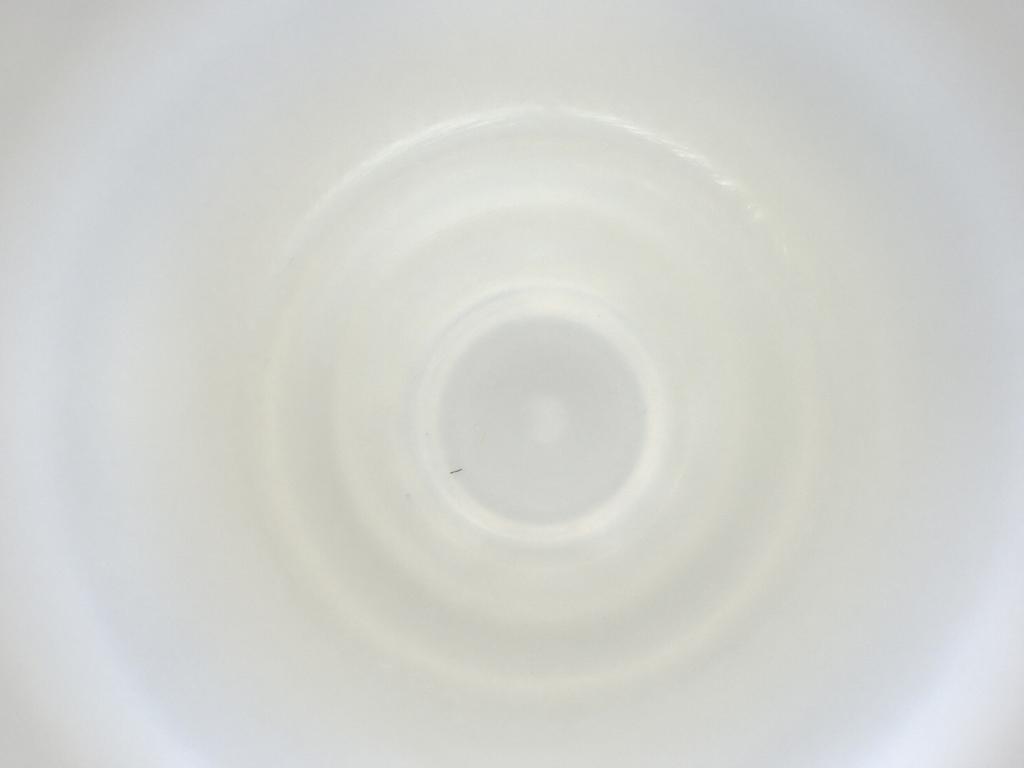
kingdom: Animalia
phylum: Arthropoda
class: Insecta
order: Diptera
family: Cecidomyiidae
